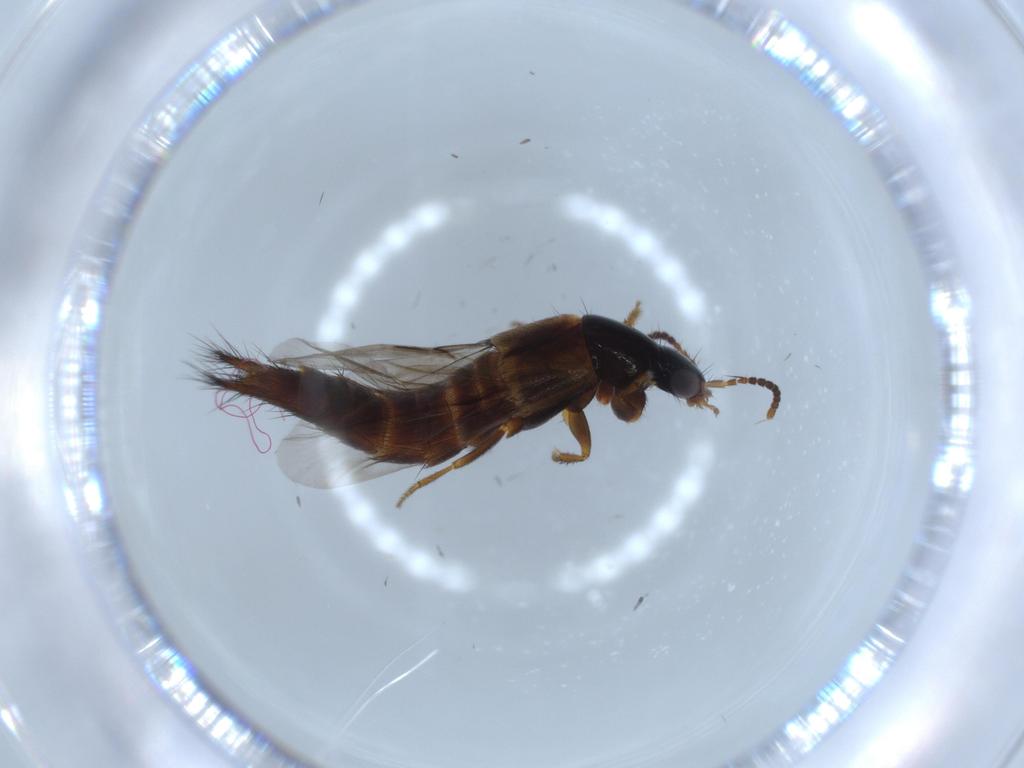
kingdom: Animalia
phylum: Arthropoda
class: Insecta
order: Coleoptera
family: Staphylinidae
